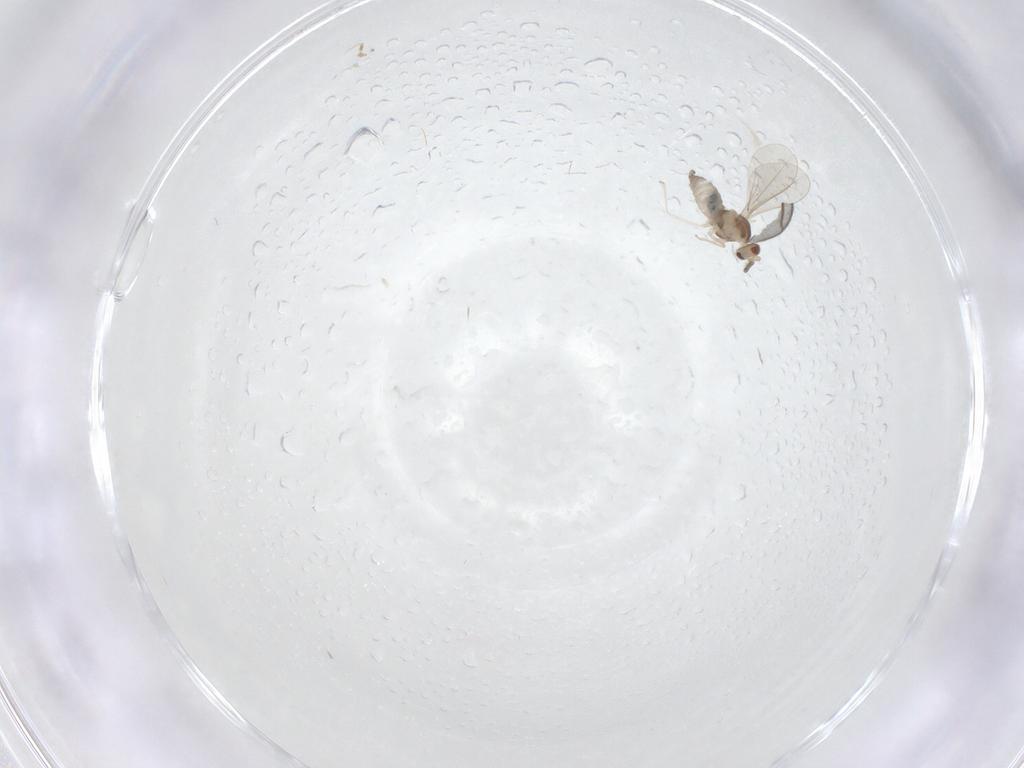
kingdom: Animalia
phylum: Arthropoda
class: Insecta
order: Diptera
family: Cecidomyiidae
